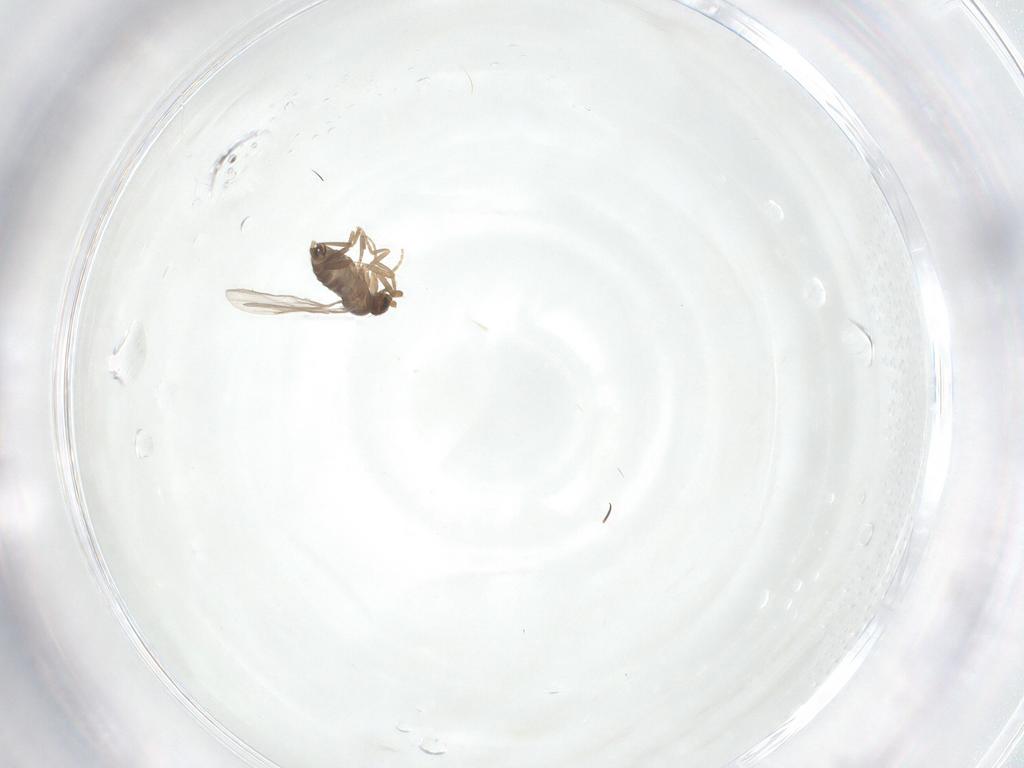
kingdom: Animalia
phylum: Arthropoda
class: Insecta
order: Diptera
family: Phoridae
